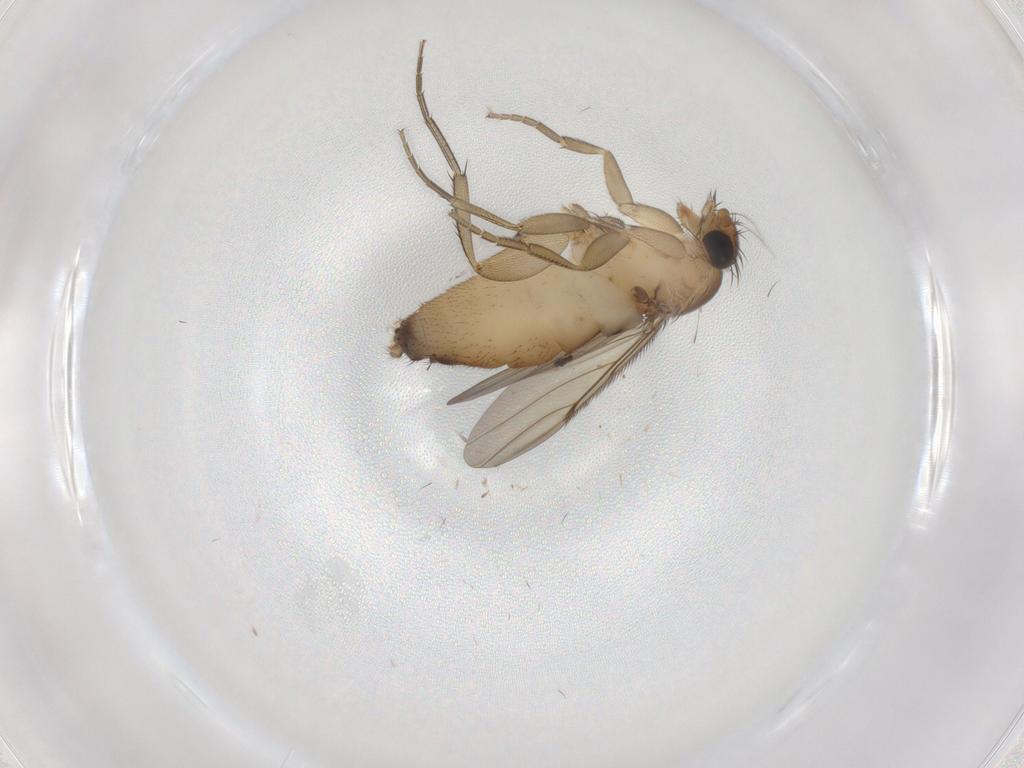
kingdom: Animalia
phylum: Arthropoda
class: Insecta
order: Diptera
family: Phoridae
